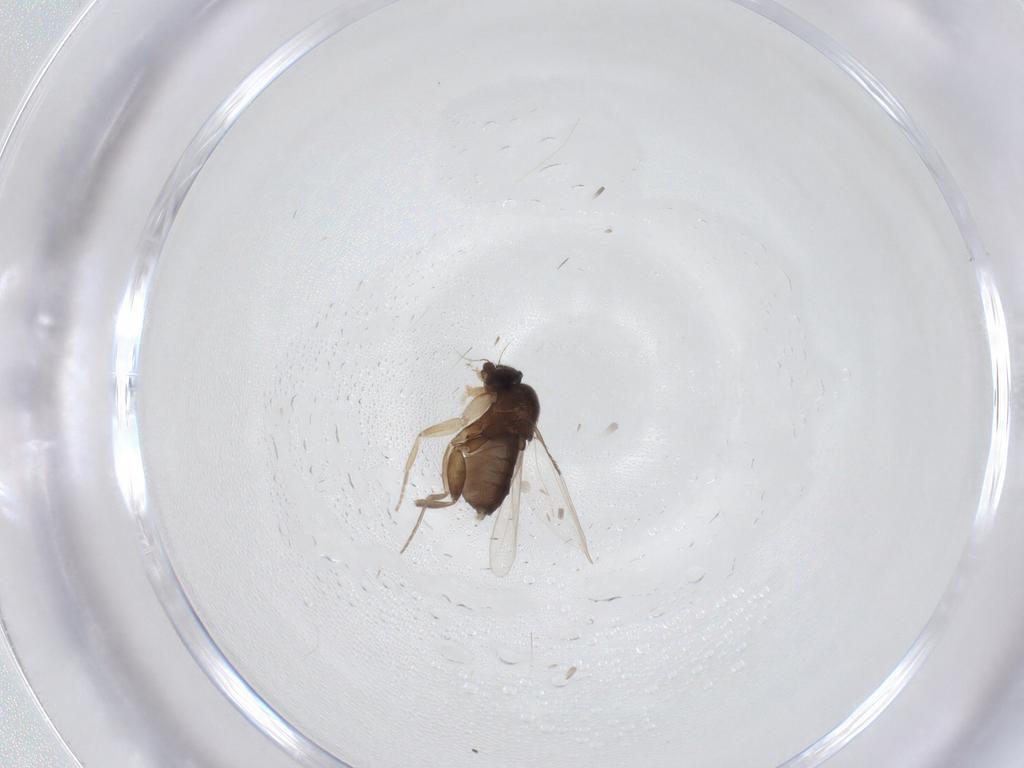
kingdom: Animalia
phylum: Arthropoda
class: Insecta
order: Diptera
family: Phoridae
